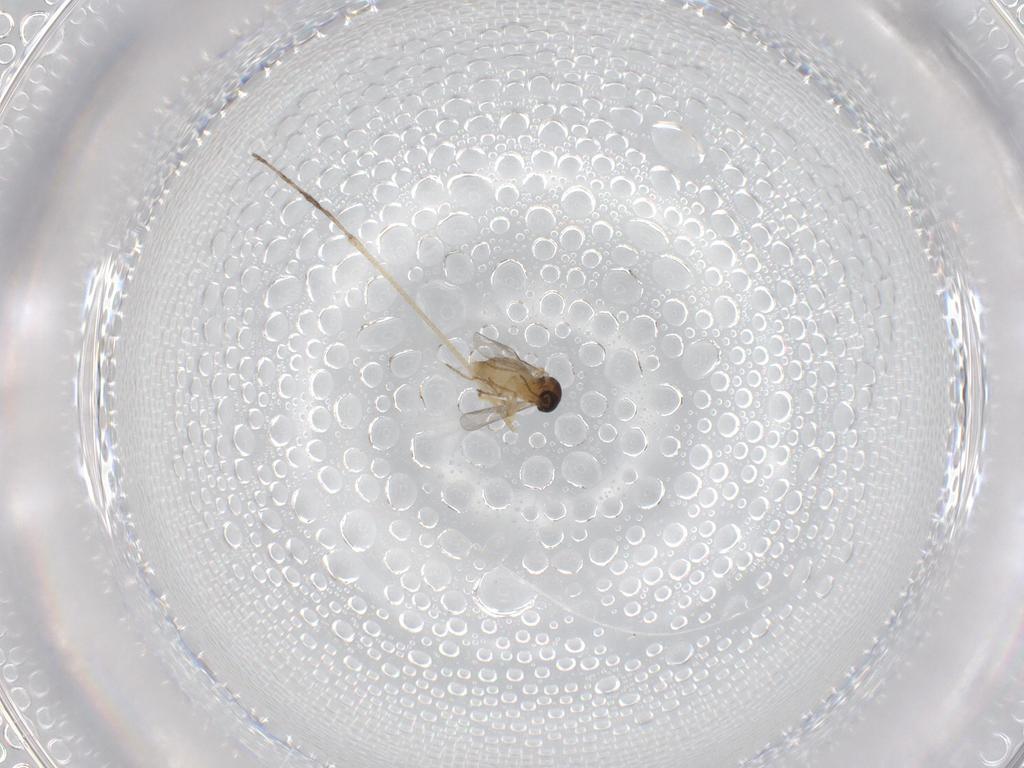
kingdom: Animalia
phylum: Arthropoda
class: Insecta
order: Diptera
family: Ceratopogonidae
